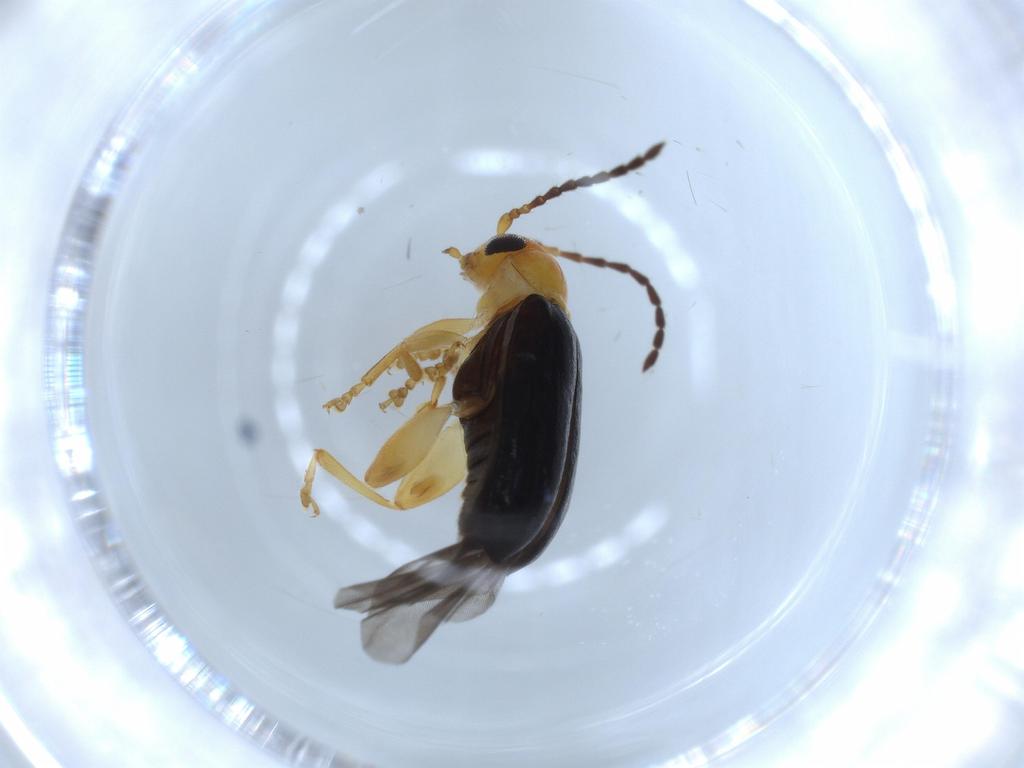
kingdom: Animalia
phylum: Arthropoda
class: Insecta
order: Coleoptera
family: Chrysomelidae
